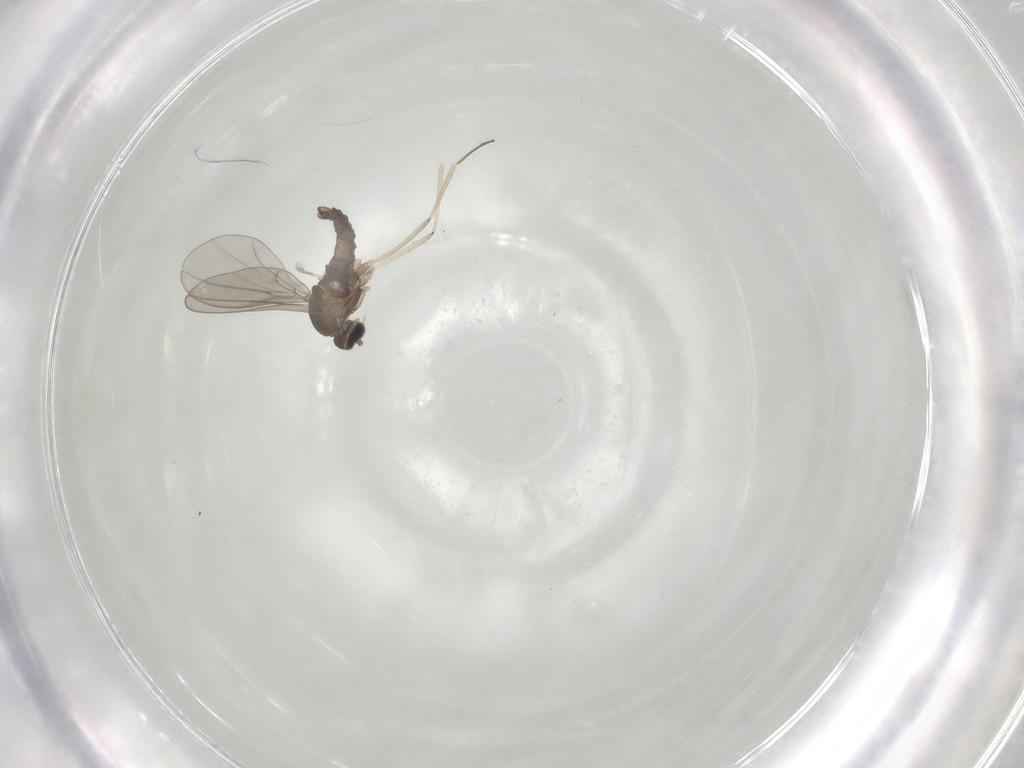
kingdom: Animalia
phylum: Arthropoda
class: Insecta
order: Diptera
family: Cecidomyiidae
